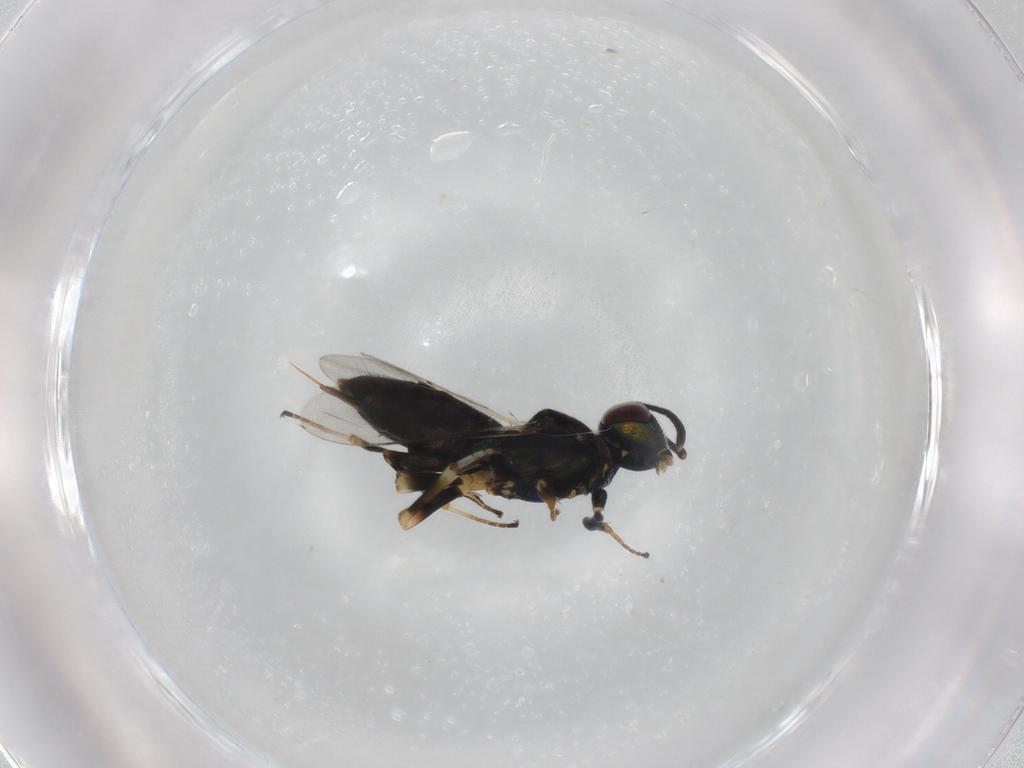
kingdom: Animalia
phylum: Arthropoda
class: Insecta
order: Hymenoptera
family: Eupelmidae
